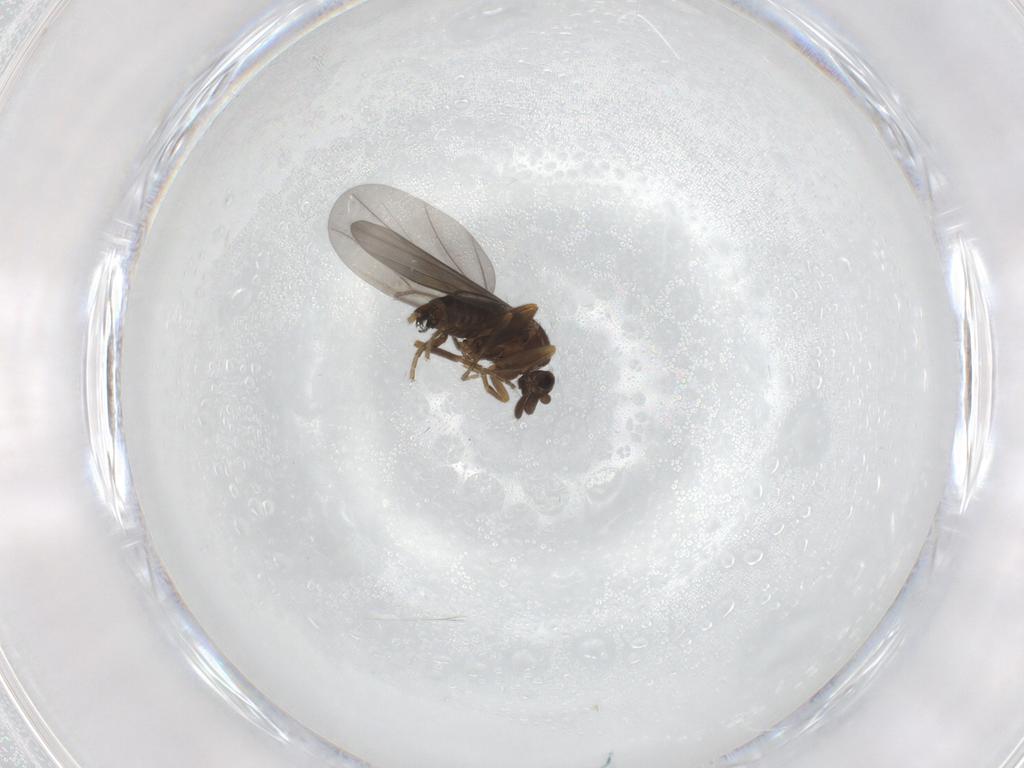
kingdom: Animalia
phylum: Arthropoda
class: Insecta
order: Diptera
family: Phoridae
